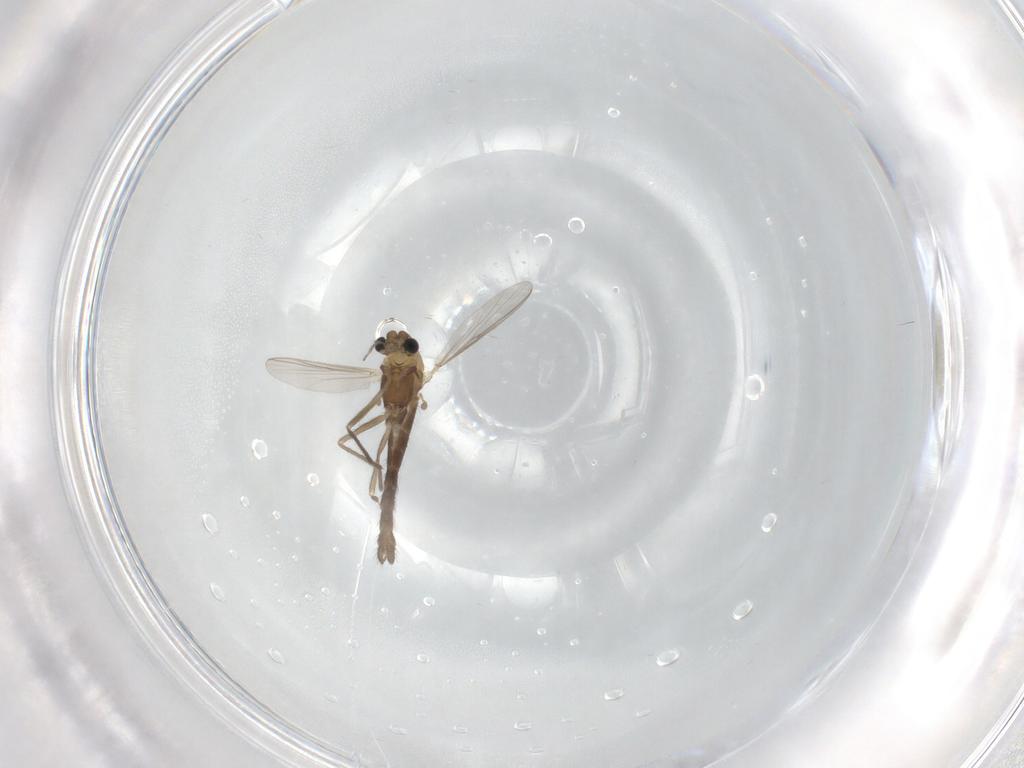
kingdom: Animalia
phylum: Arthropoda
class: Insecta
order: Diptera
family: Chironomidae
